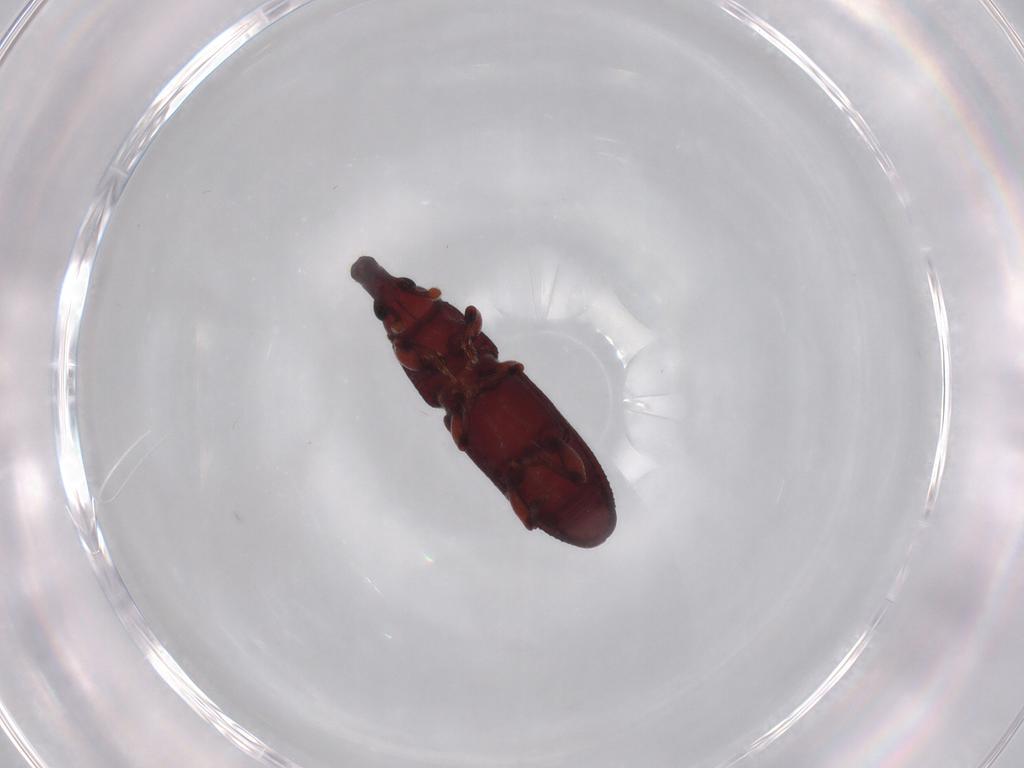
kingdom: Animalia
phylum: Arthropoda
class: Insecta
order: Coleoptera
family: Curculionidae
